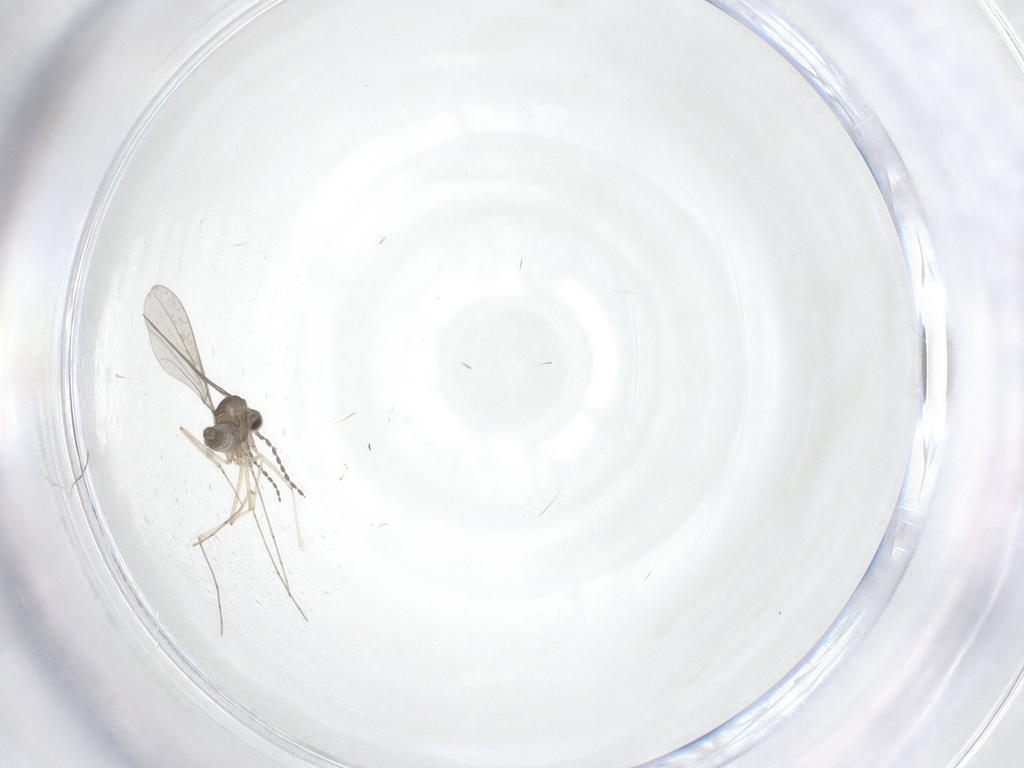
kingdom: Animalia
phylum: Arthropoda
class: Insecta
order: Diptera
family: Cecidomyiidae
